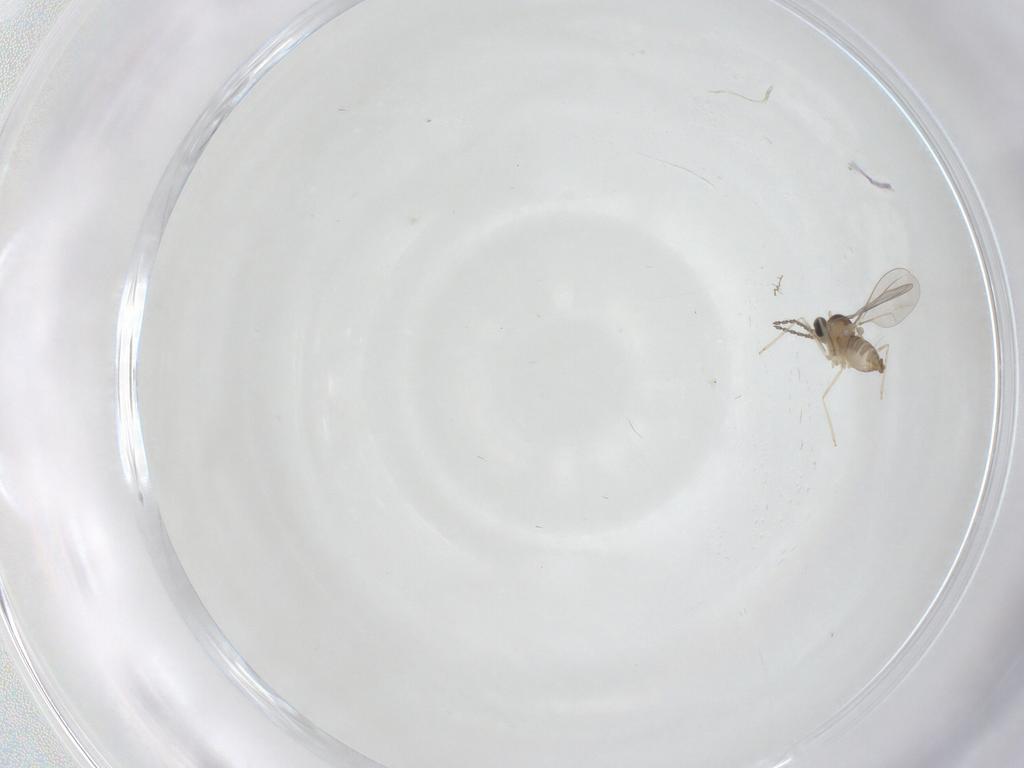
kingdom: Animalia
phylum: Arthropoda
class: Insecta
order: Diptera
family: Cecidomyiidae
